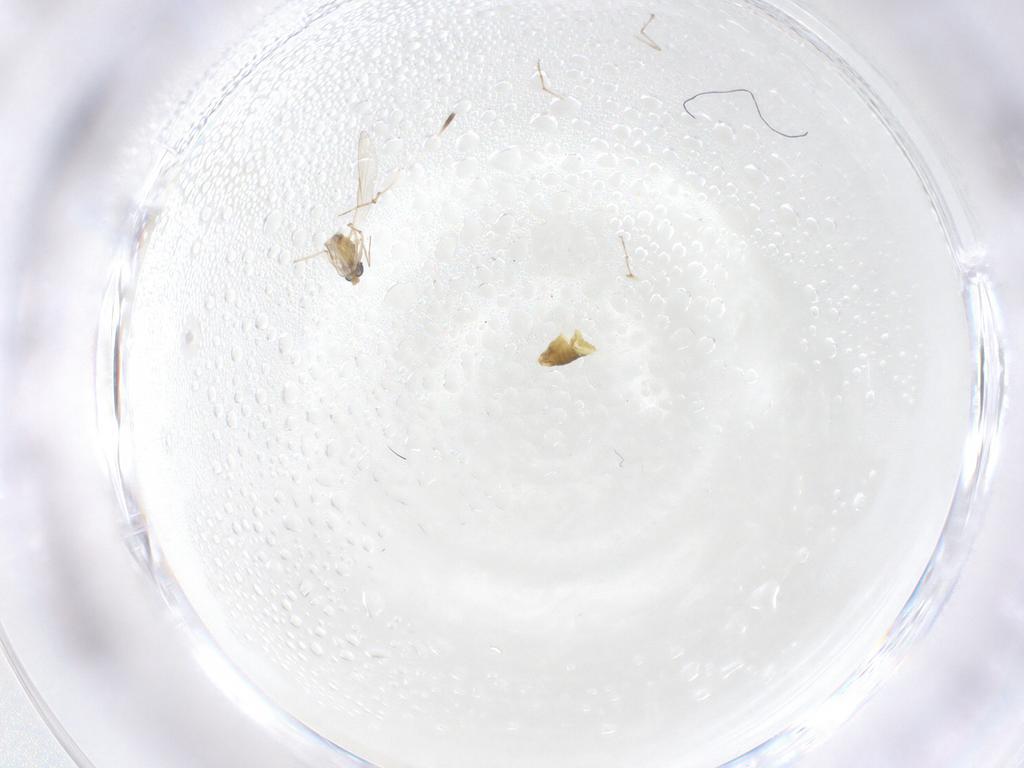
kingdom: Animalia
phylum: Arthropoda
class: Insecta
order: Diptera
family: Chironomidae
